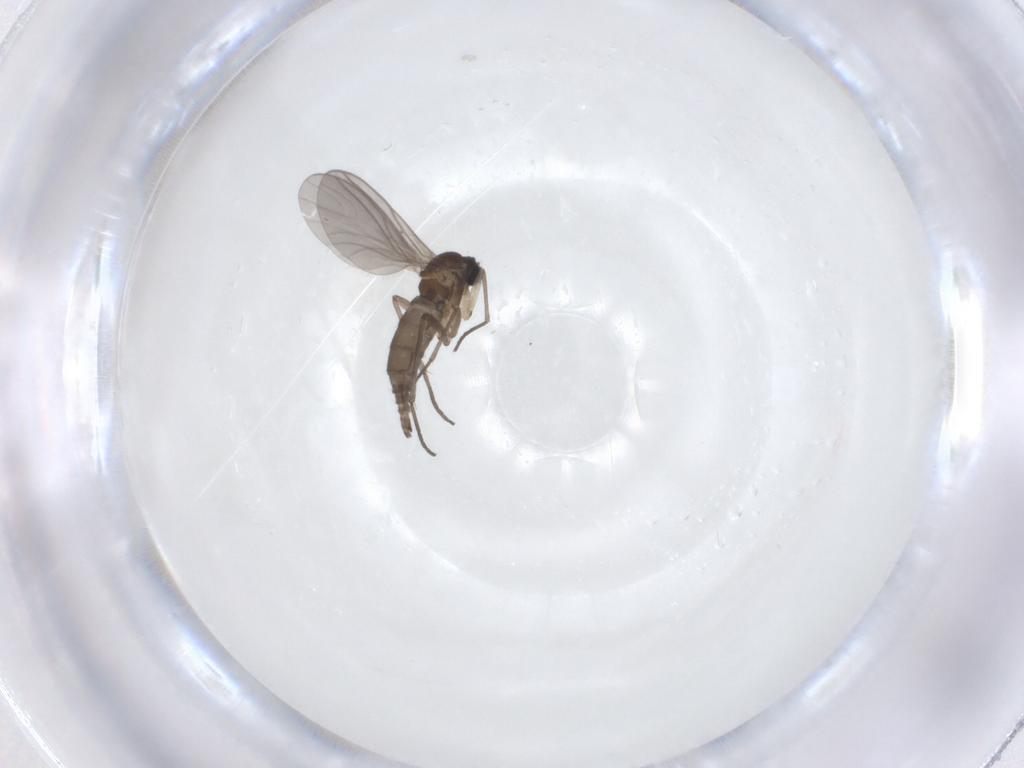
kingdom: Animalia
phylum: Arthropoda
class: Insecta
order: Diptera
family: Sciaridae
